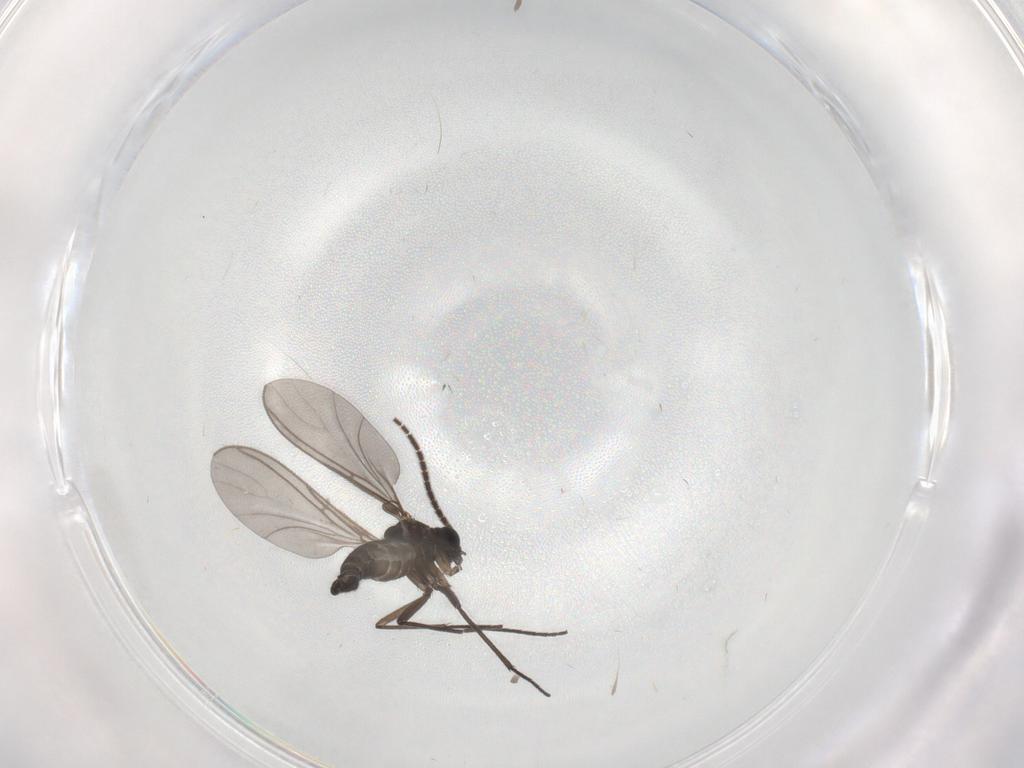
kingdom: Animalia
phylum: Arthropoda
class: Insecta
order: Diptera
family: Sciaridae
